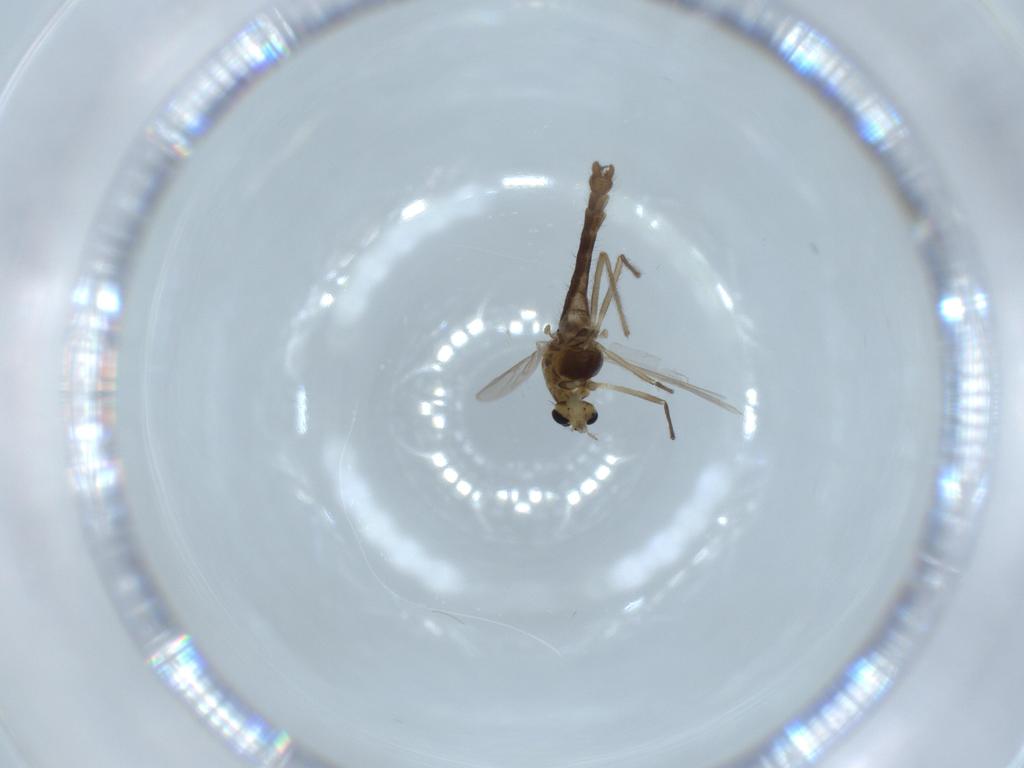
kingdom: Animalia
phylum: Arthropoda
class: Insecta
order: Diptera
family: Chironomidae
